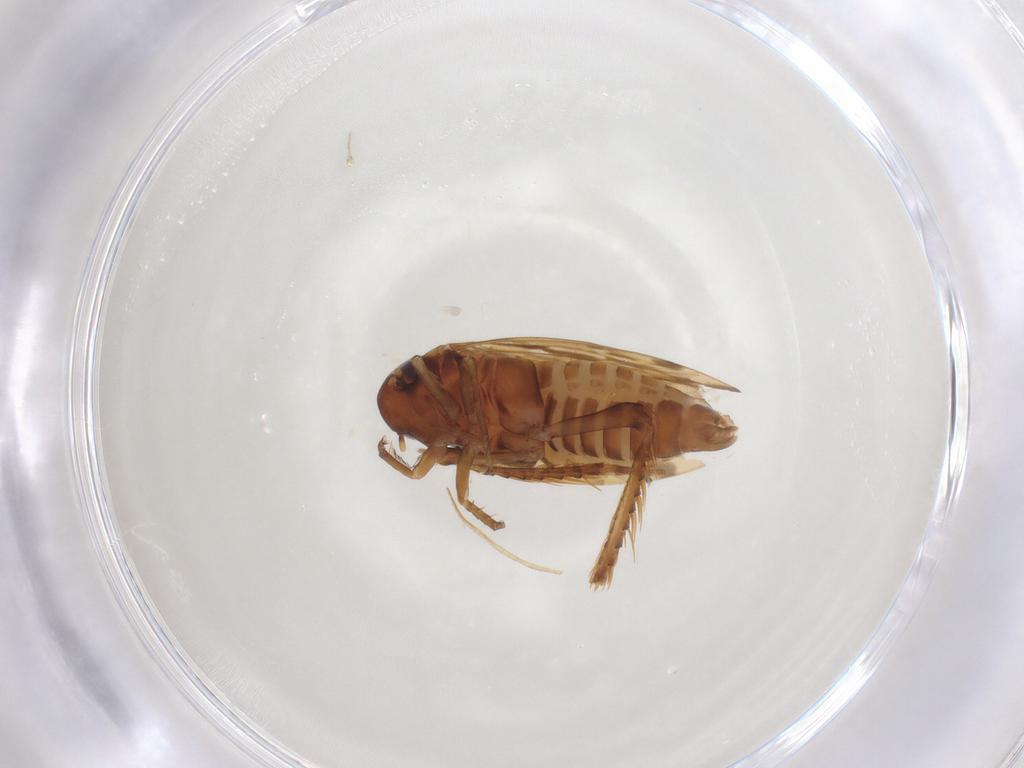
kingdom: Animalia
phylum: Arthropoda
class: Insecta
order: Hemiptera
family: Cicadellidae
